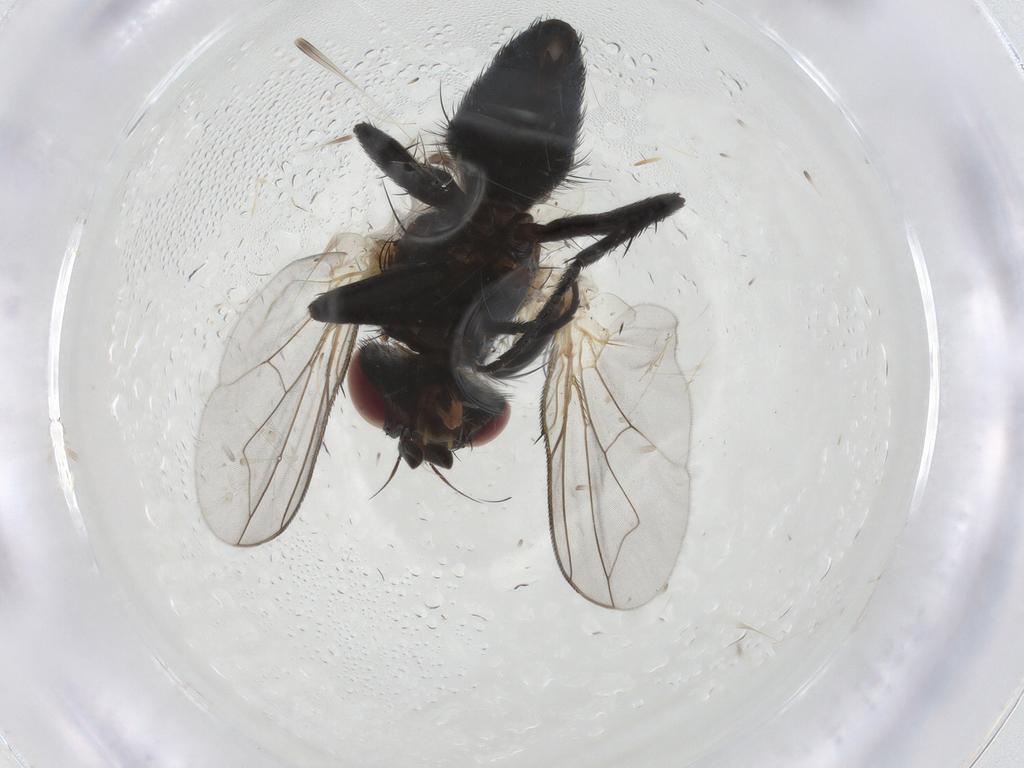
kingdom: Animalia
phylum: Arthropoda
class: Insecta
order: Diptera
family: Tachinidae
